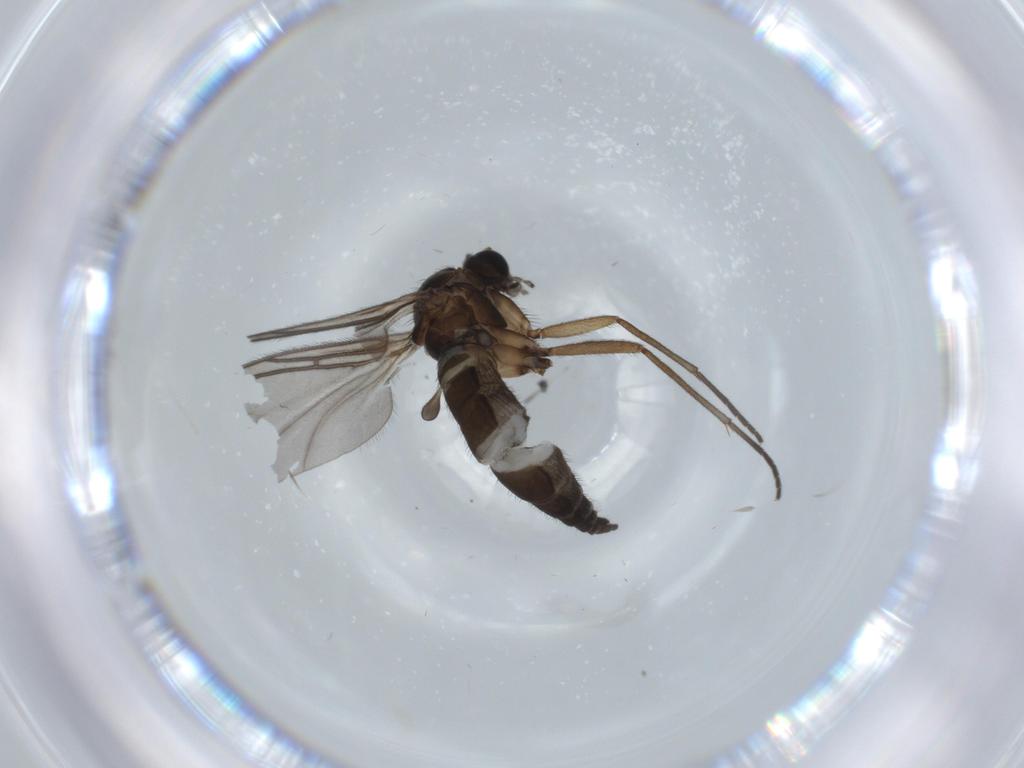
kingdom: Animalia
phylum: Arthropoda
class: Insecta
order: Diptera
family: Sciaridae
